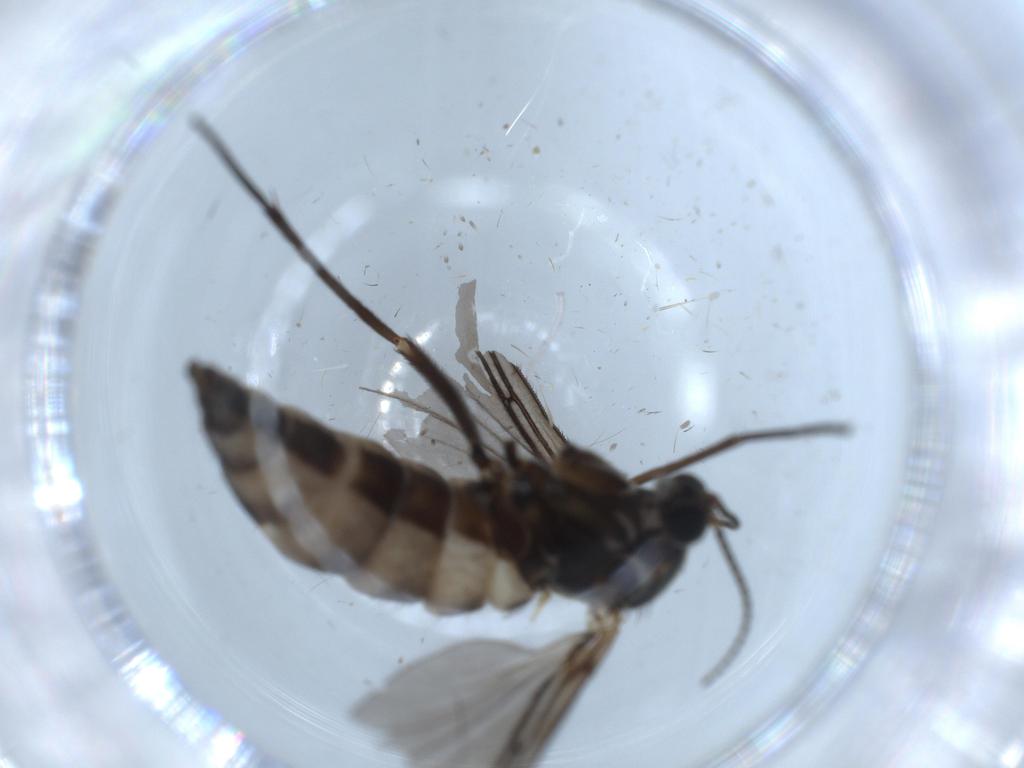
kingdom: Animalia
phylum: Arthropoda
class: Insecta
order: Diptera
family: Sciaridae
